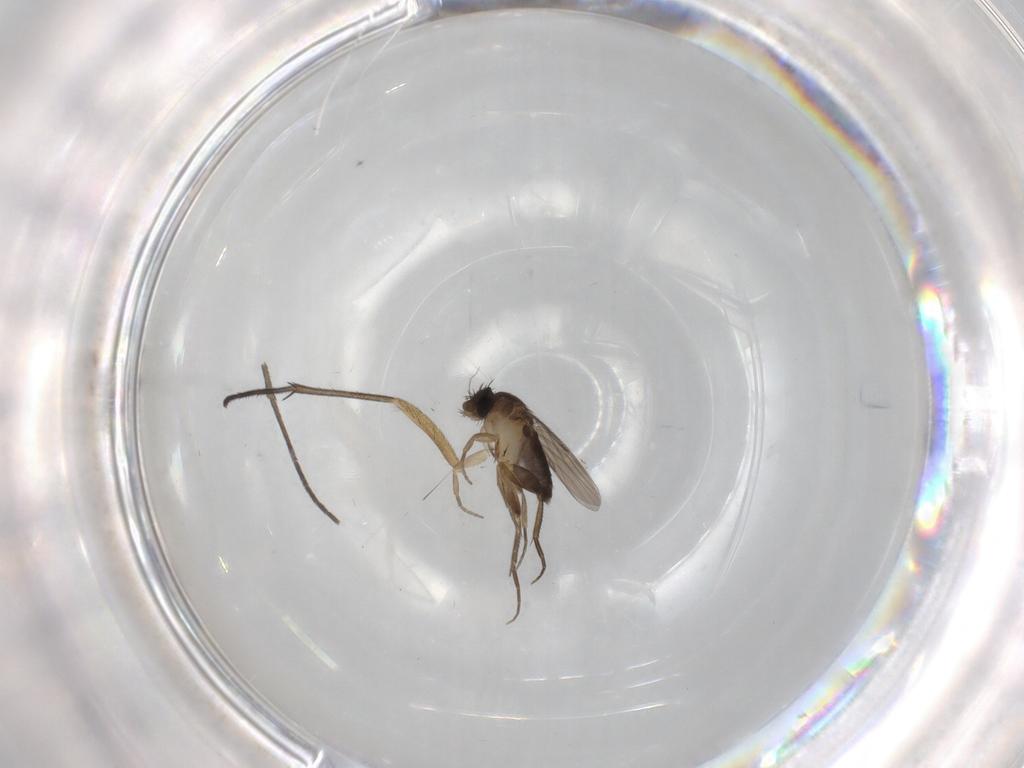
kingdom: Animalia
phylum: Arthropoda
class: Insecta
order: Diptera
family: Phoridae
